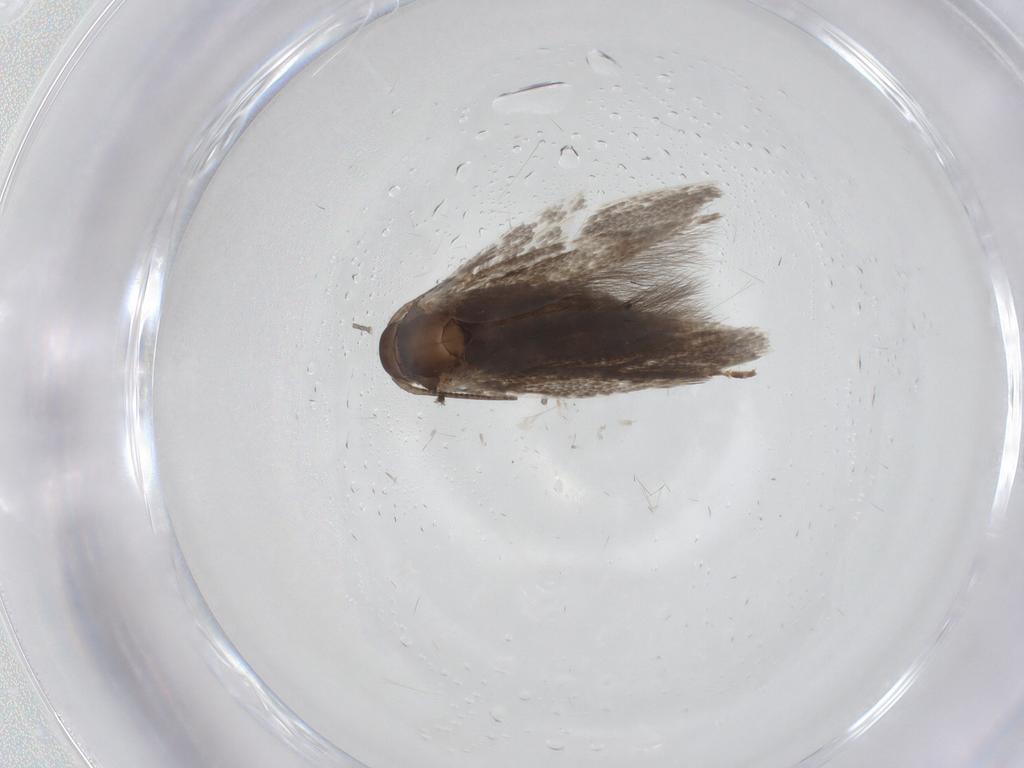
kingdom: Animalia
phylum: Arthropoda
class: Insecta
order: Lepidoptera
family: Elachistidae
